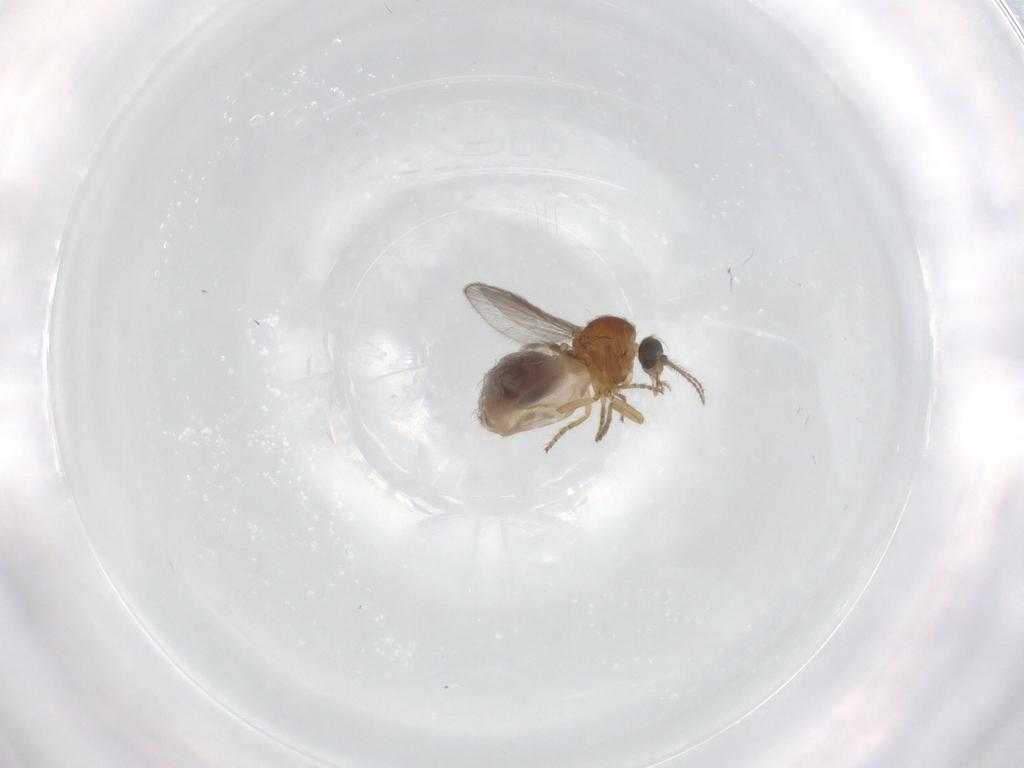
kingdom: Animalia
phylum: Arthropoda
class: Insecta
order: Diptera
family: Ceratopogonidae
